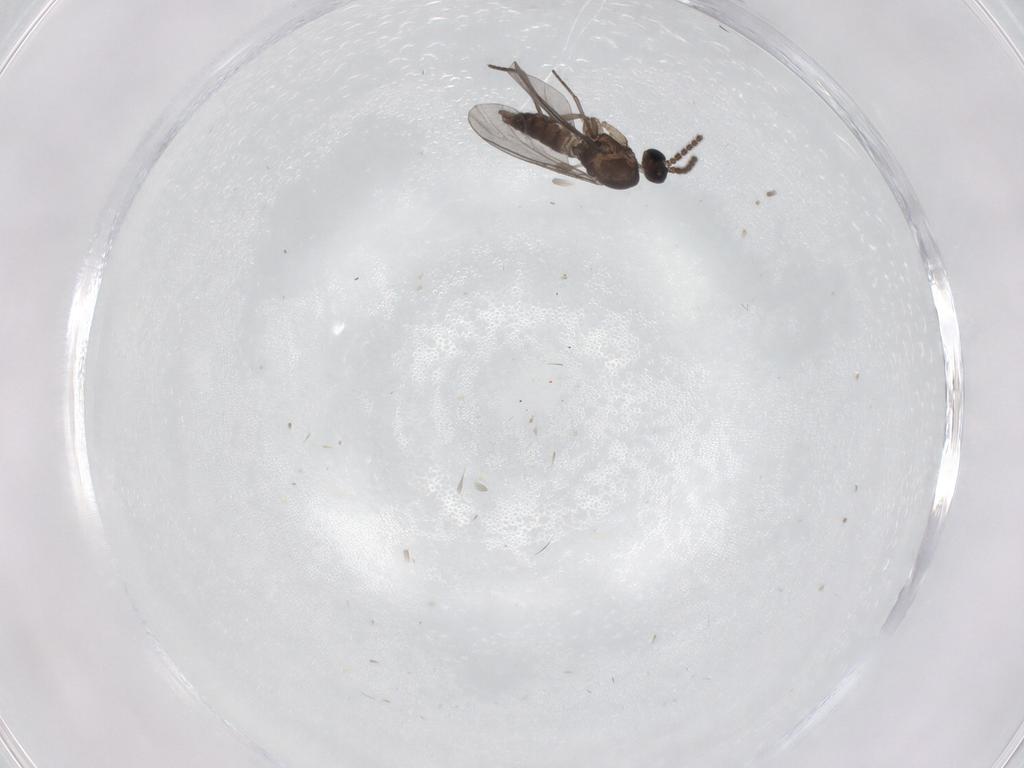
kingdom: Animalia
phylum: Arthropoda
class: Insecta
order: Diptera
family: Sciaridae
